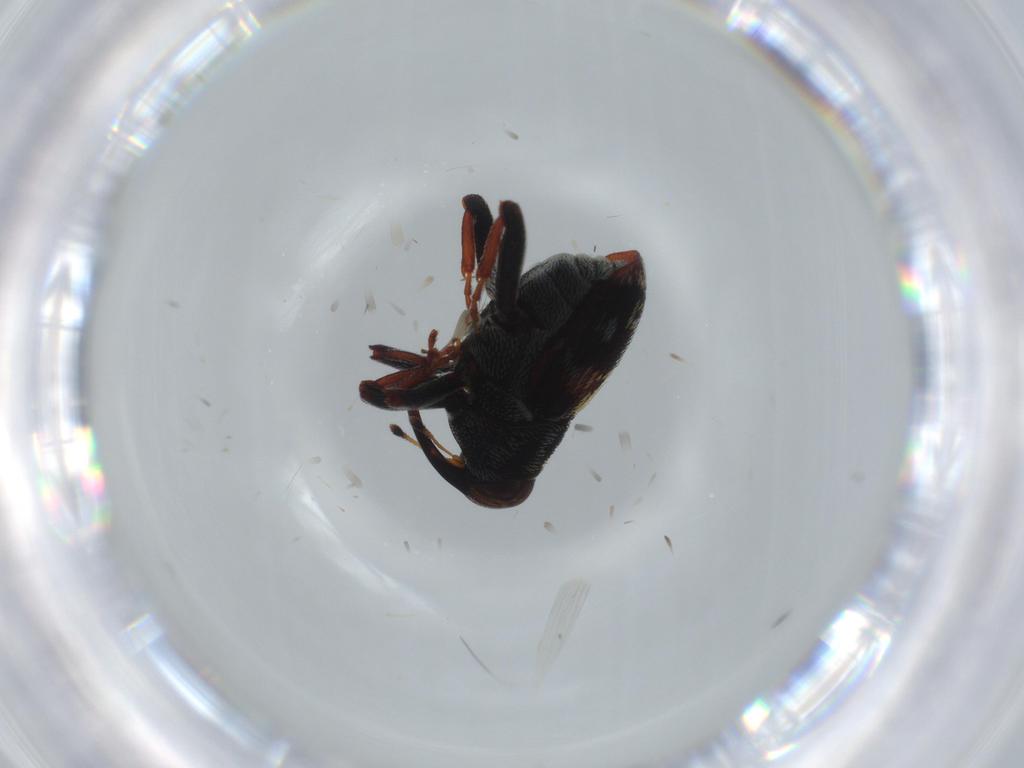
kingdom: Animalia
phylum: Arthropoda
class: Insecta
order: Coleoptera
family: Curculionidae
